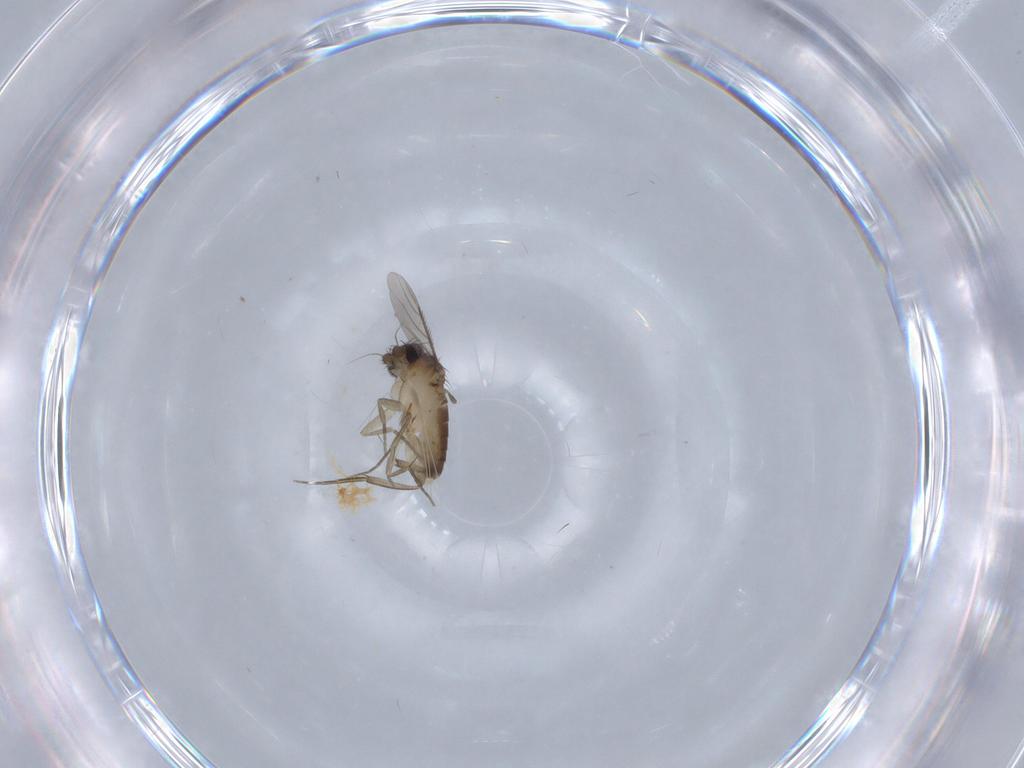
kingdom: Animalia
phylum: Arthropoda
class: Insecta
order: Diptera
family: Phoridae
